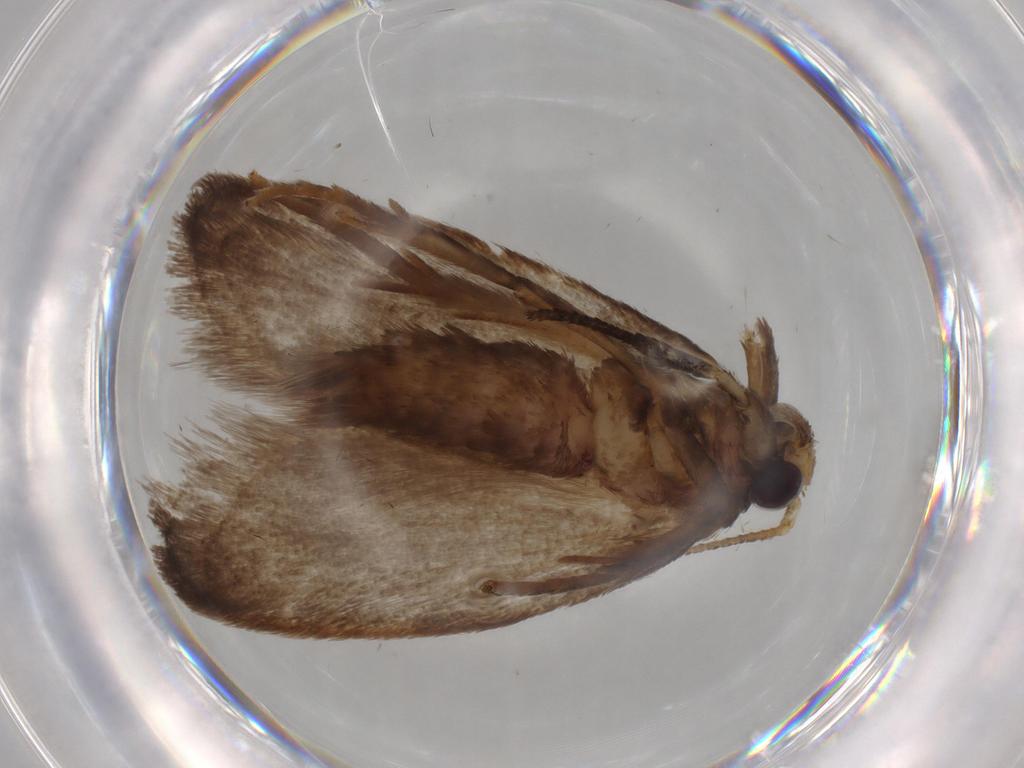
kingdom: Animalia
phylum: Arthropoda
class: Insecta
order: Lepidoptera
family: Nepticulidae
